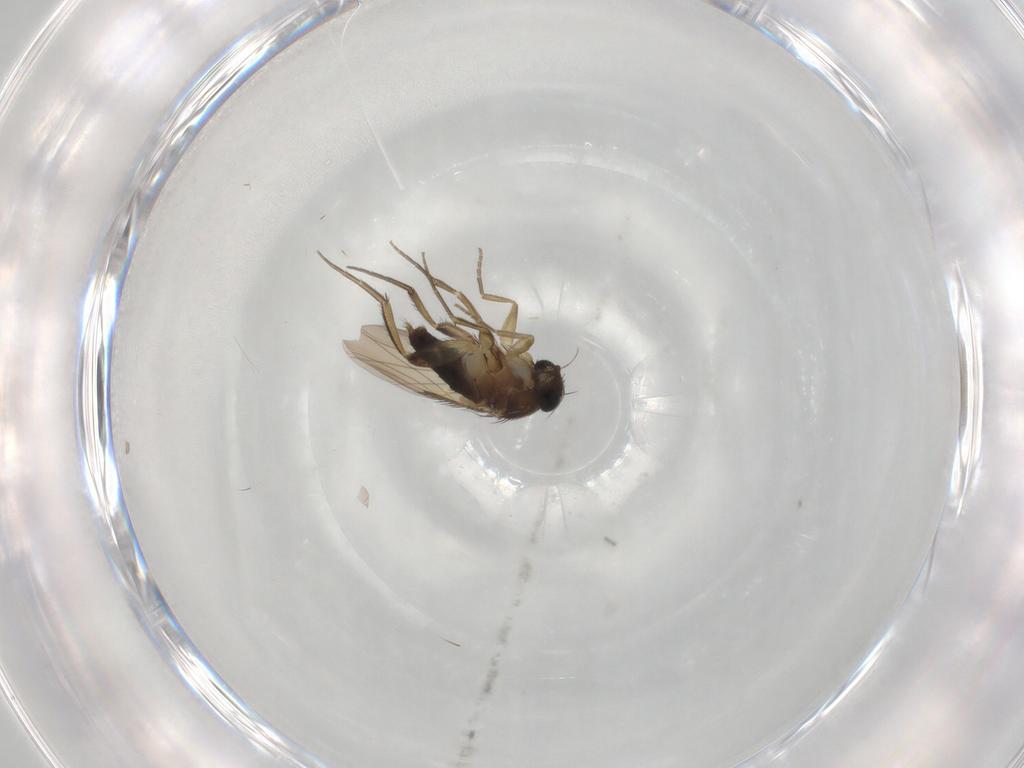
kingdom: Animalia
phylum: Arthropoda
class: Insecta
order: Diptera
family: Phoridae
